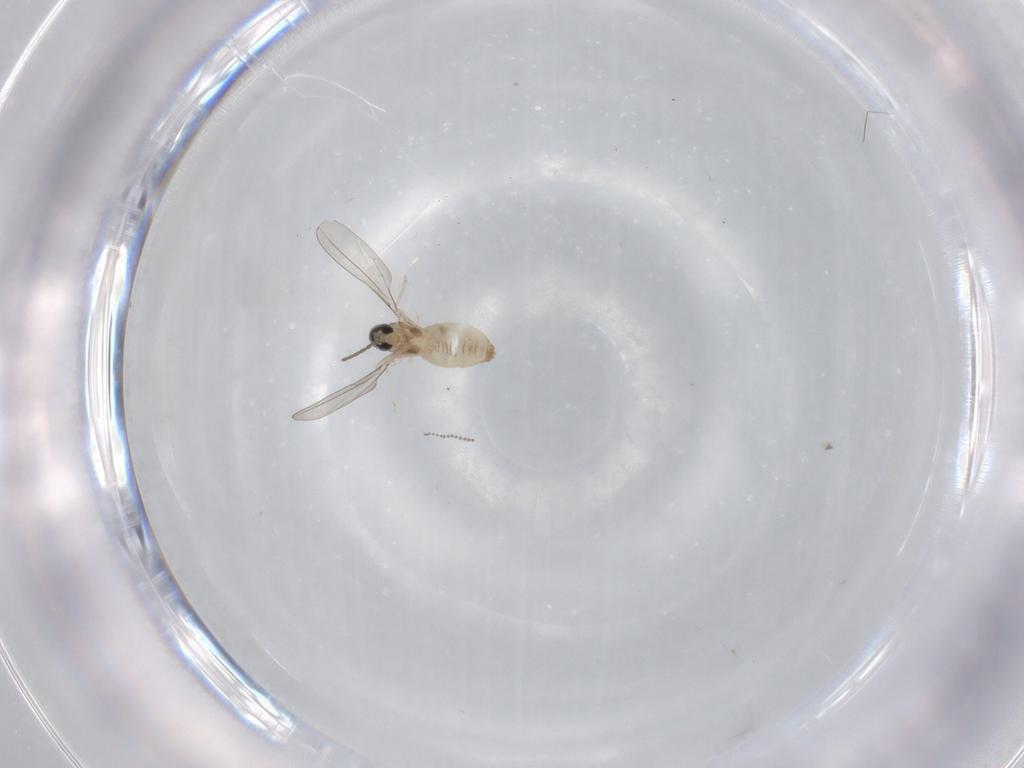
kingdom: Animalia
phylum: Arthropoda
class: Insecta
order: Diptera
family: Cecidomyiidae
